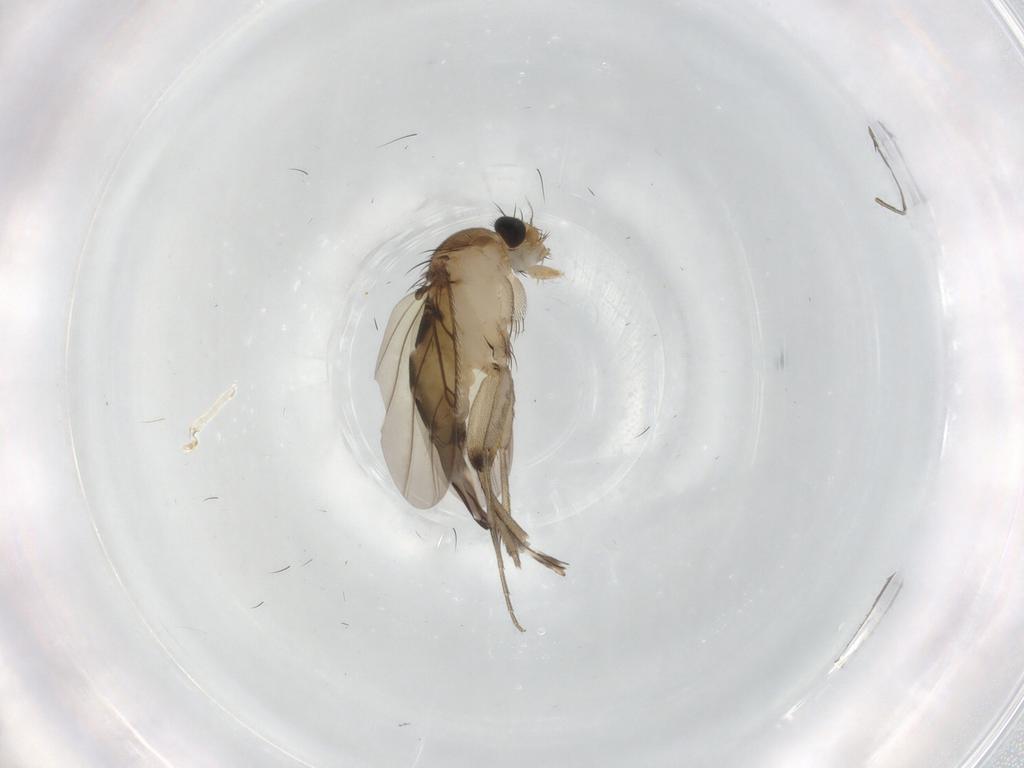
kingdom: Animalia
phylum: Arthropoda
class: Insecta
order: Diptera
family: Phoridae
